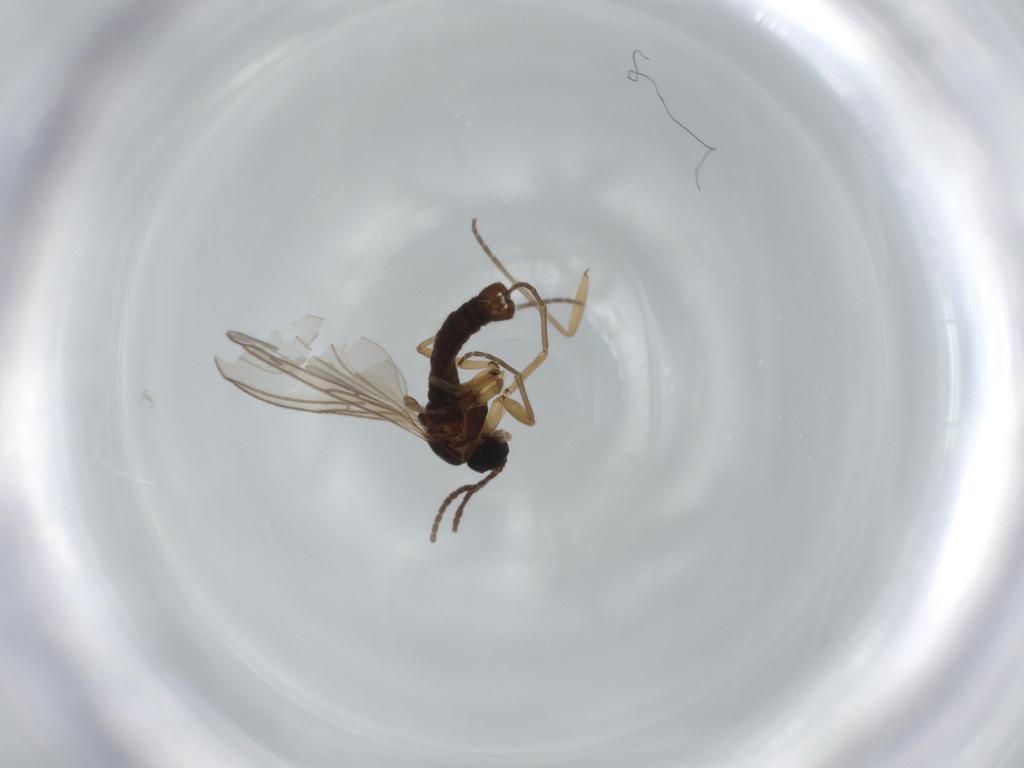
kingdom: Animalia
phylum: Arthropoda
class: Insecta
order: Diptera
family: Sciaridae
